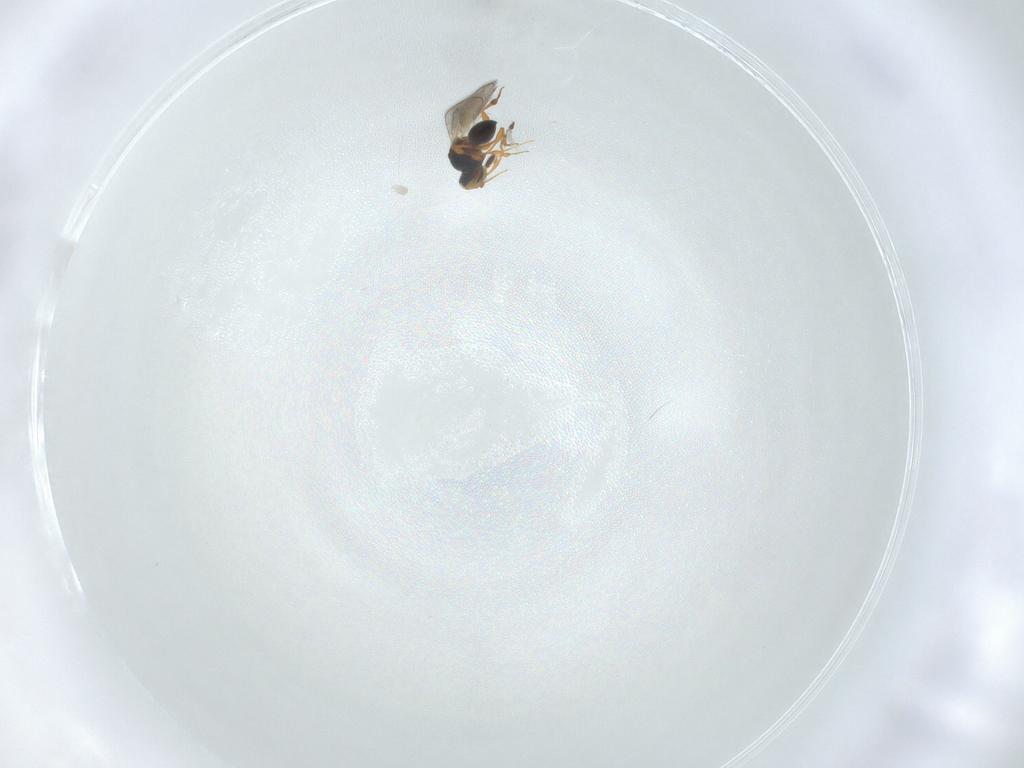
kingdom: Animalia
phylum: Arthropoda
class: Insecta
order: Hymenoptera
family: Platygastridae
